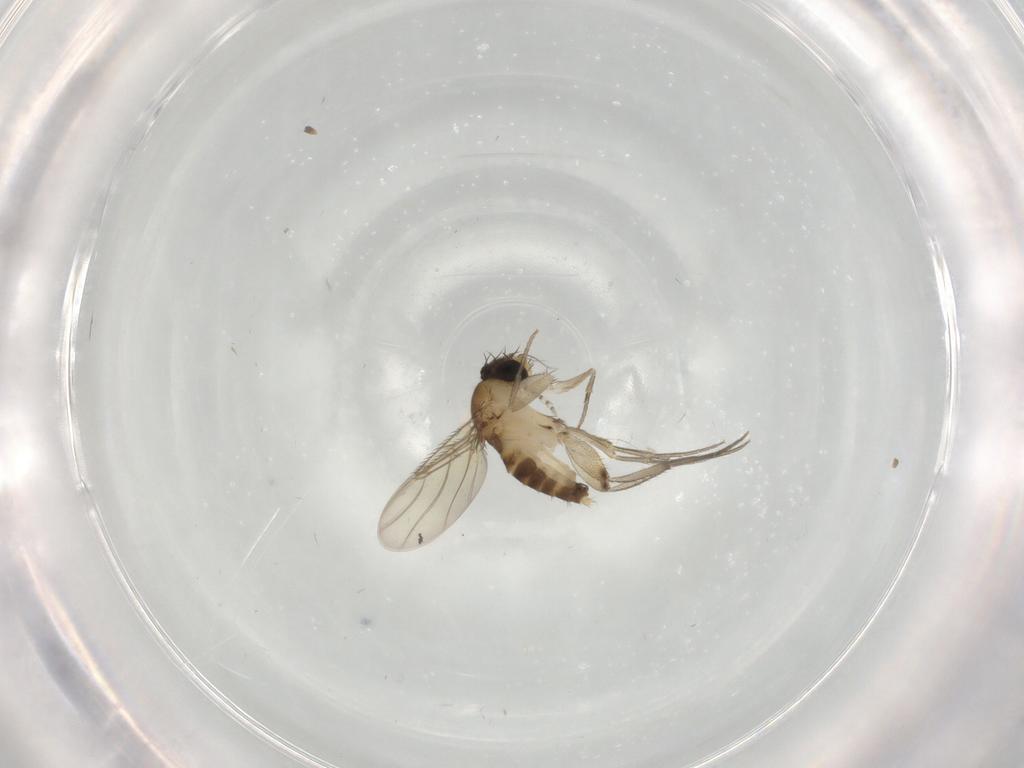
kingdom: Animalia
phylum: Arthropoda
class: Insecta
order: Diptera
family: Phoridae
